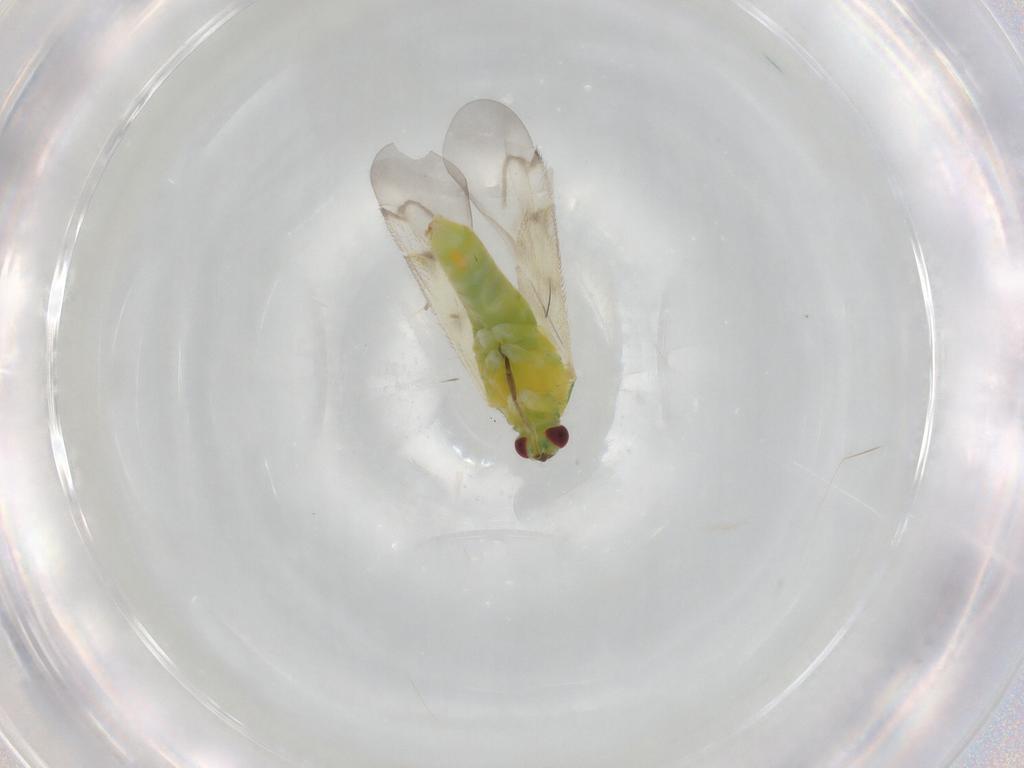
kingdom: Animalia
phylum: Arthropoda
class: Insecta
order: Hemiptera
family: Miridae
